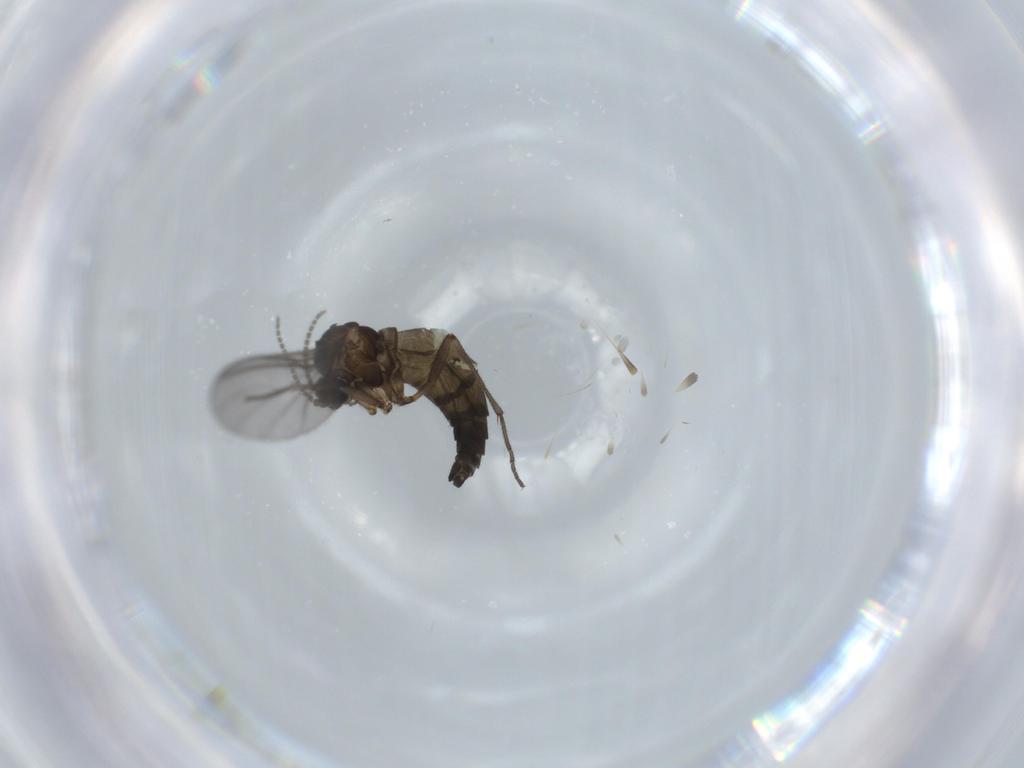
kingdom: Animalia
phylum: Arthropoda
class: Insecta
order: Diptera
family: Sciaridae
